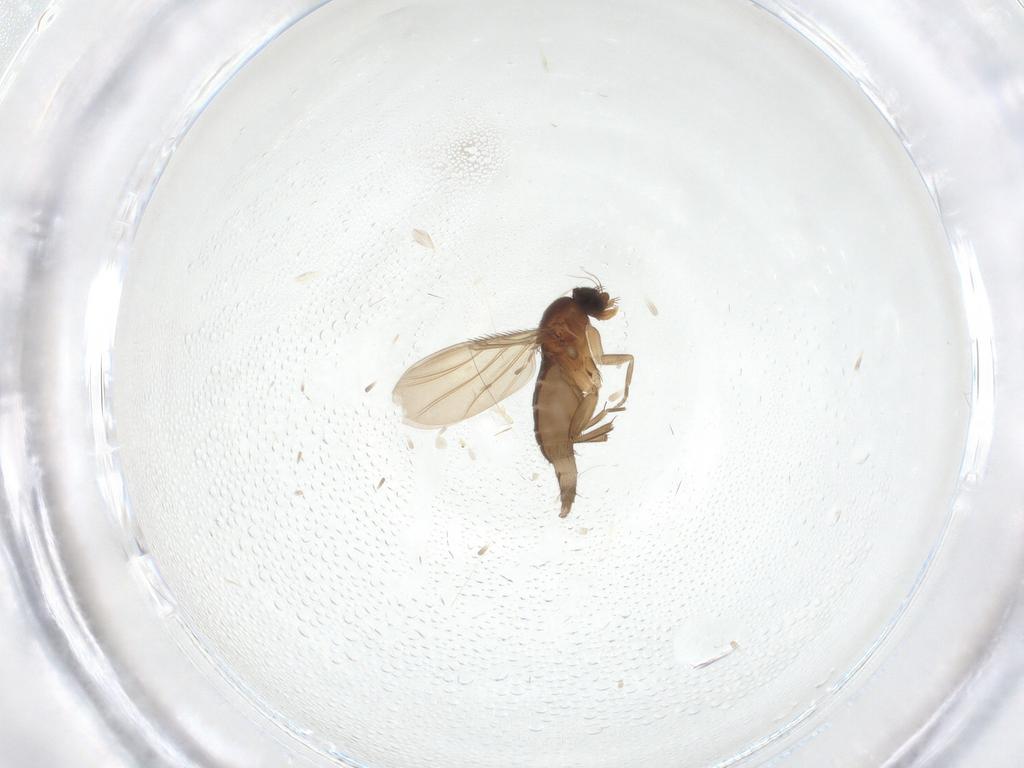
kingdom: Animalia
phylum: Arthropoda
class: Insecta
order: Diptera
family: Phoridae
